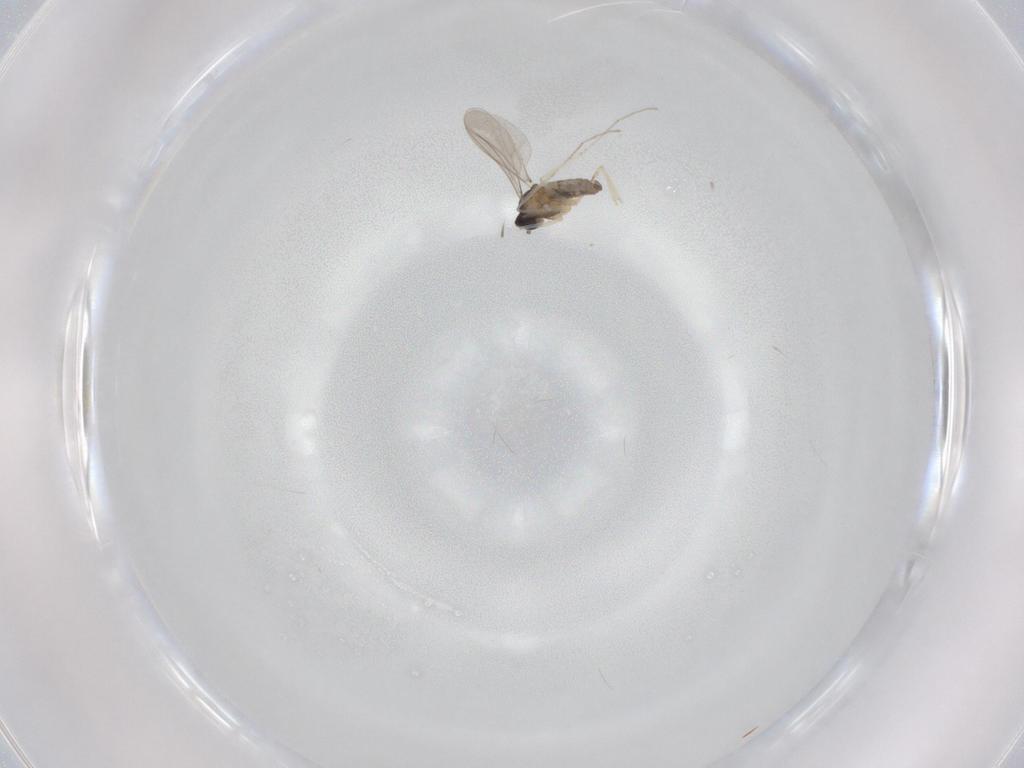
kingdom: Animalia
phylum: Arthropoda
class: Insecta
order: Diptera
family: Cecidomyiidae
